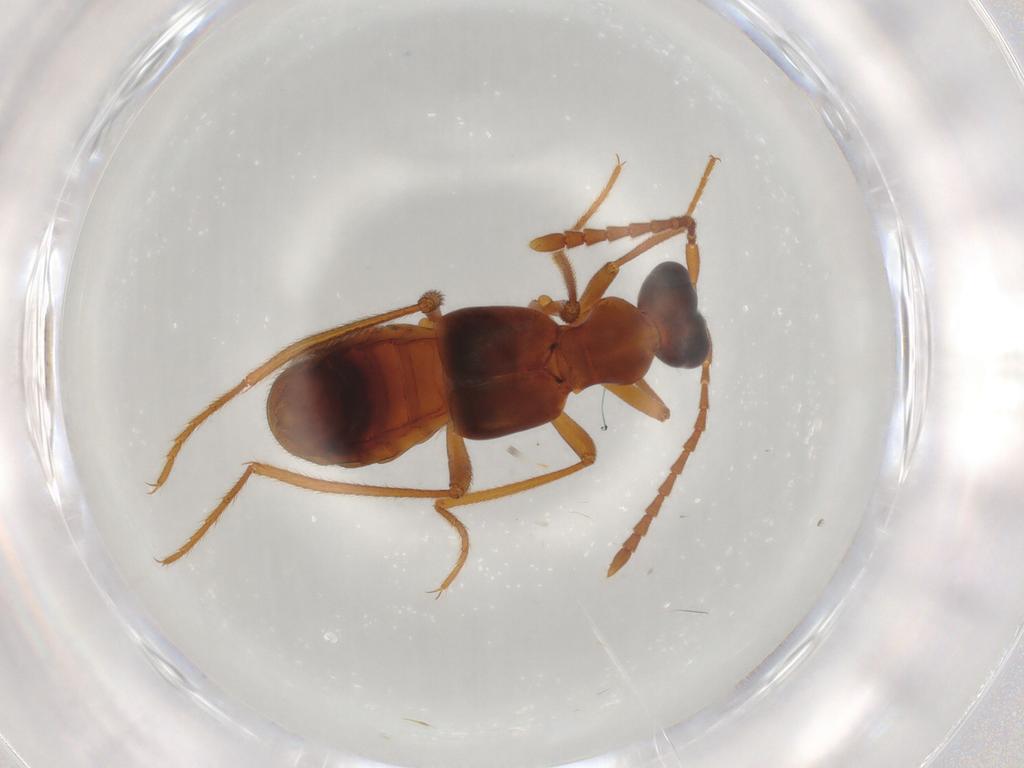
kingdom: Animalia
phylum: Arthropoda
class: Insecta
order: Coleoptera
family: Staphylinidae
